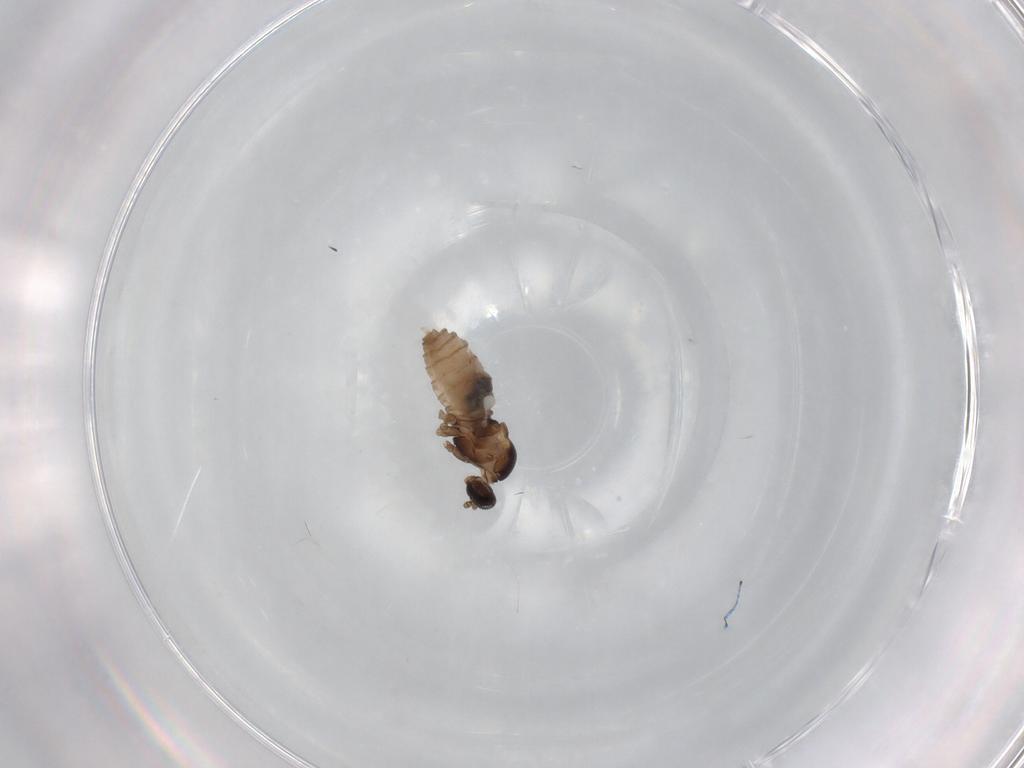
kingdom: Animalia
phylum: Arthropoda
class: Insecta
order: Diptera
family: Cecidomyiidae
